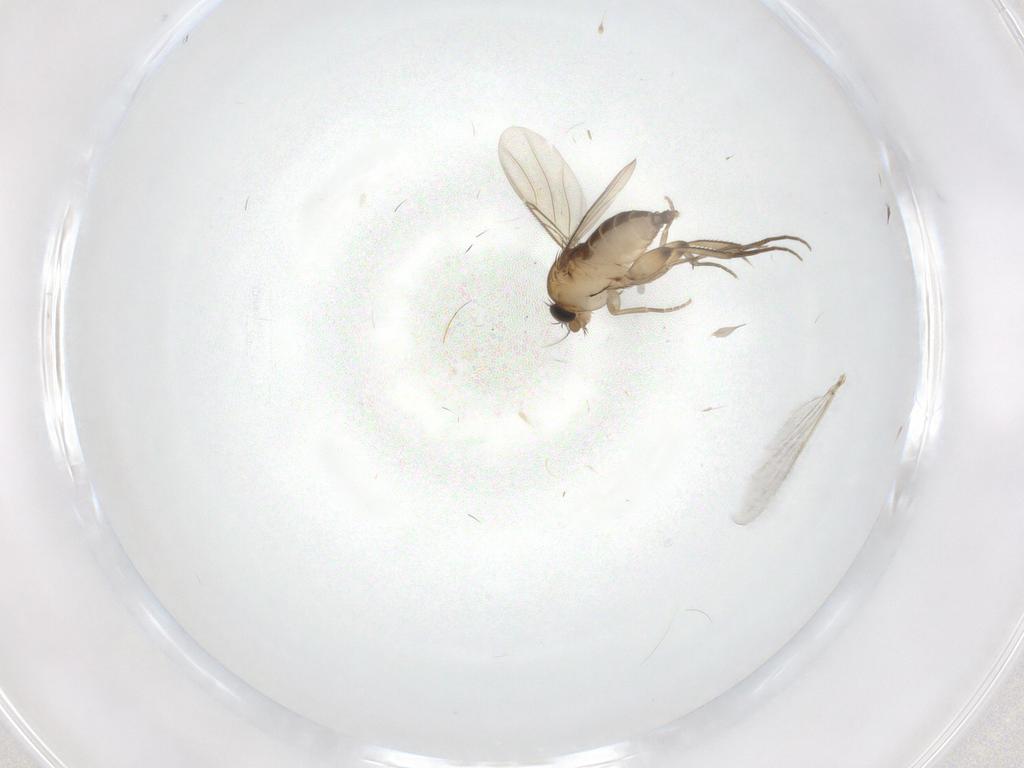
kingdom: Animalia
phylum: Arthropoda
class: Insecta
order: Diptera
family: Phoridae
